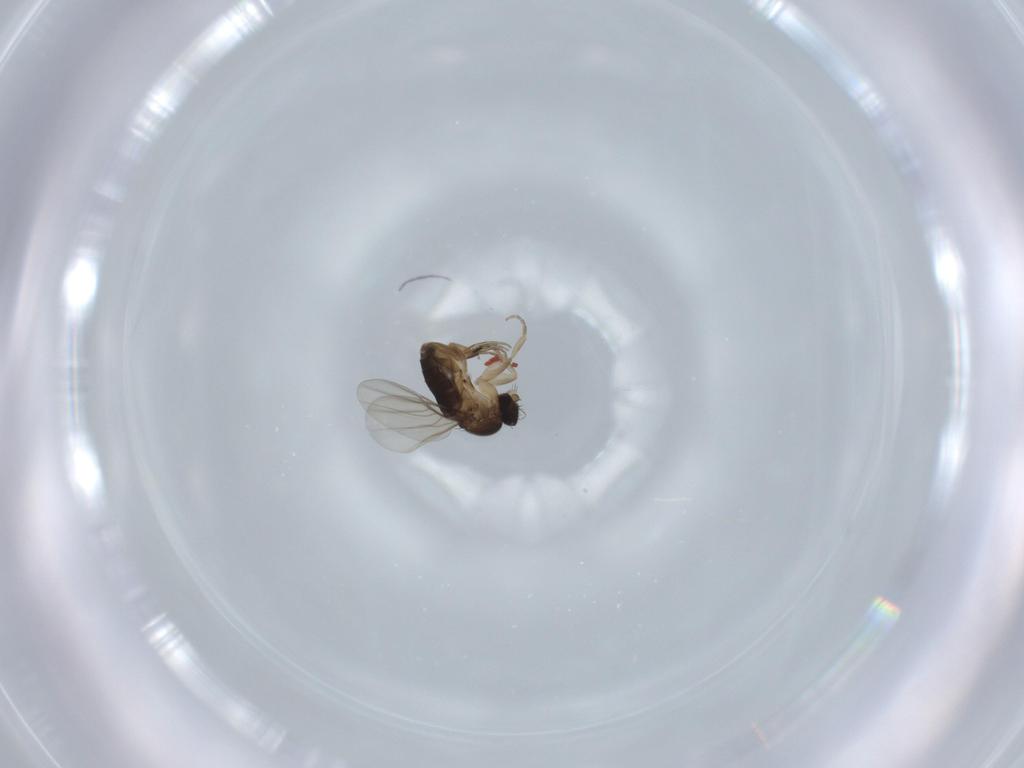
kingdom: Animalia
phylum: Arthropoda
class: Insecta
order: Diptera
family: Phoridae
